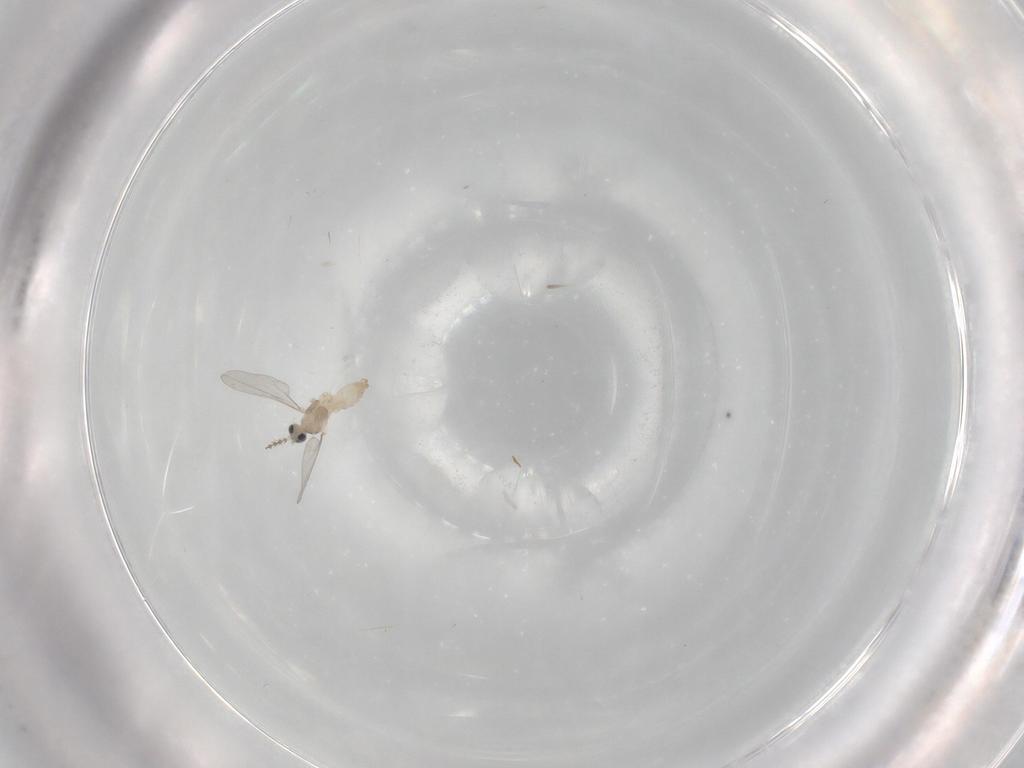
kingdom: Animalia
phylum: Arthropoda
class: Insecta
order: Diptera
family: Cecidomyiidae
